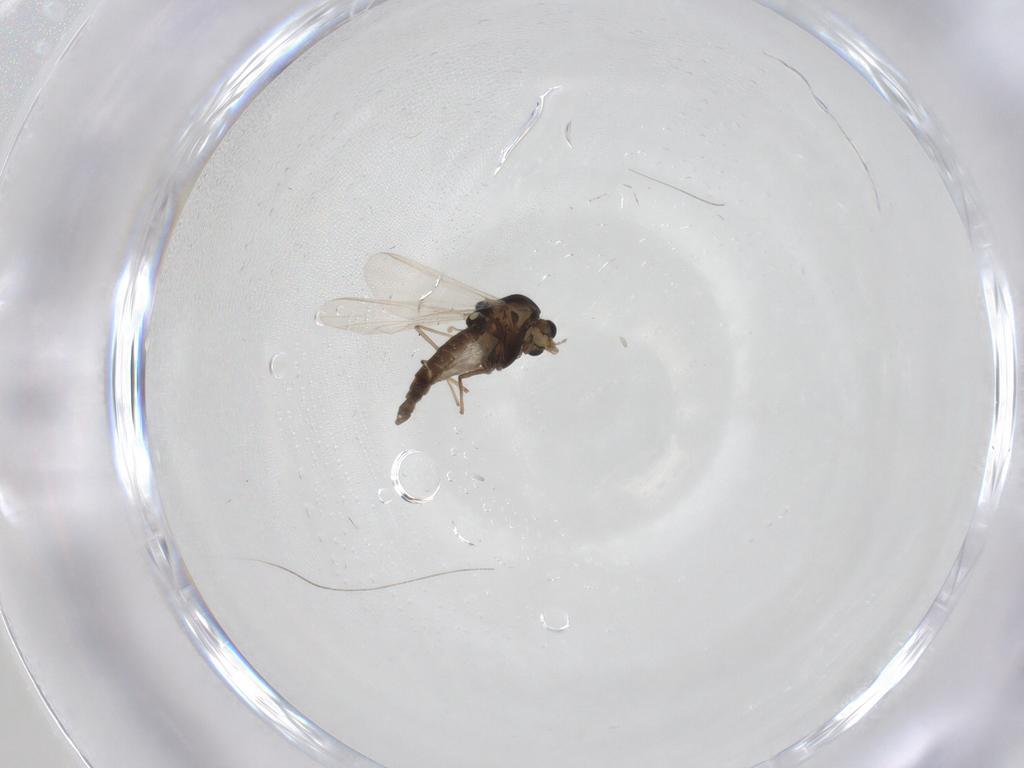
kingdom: Animalia
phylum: Arthropoda
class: Insecta
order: Diptera
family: Chironomidae
